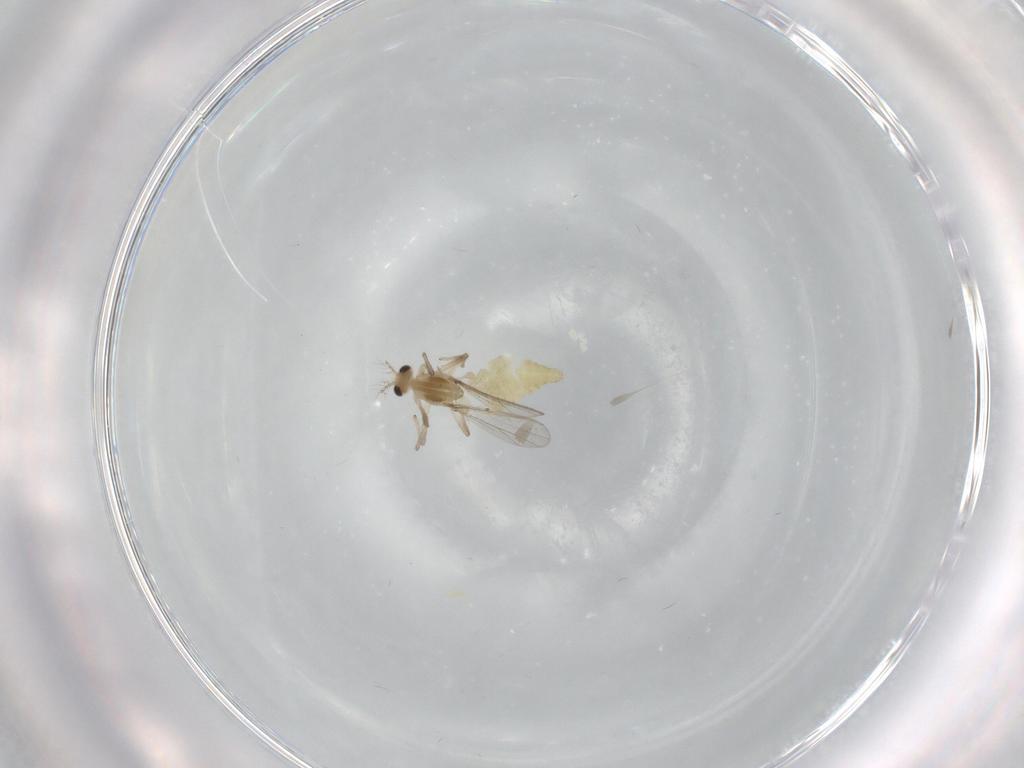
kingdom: Animalia
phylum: Arthropoda
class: Insecta
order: Diptera
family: Chironomidae
